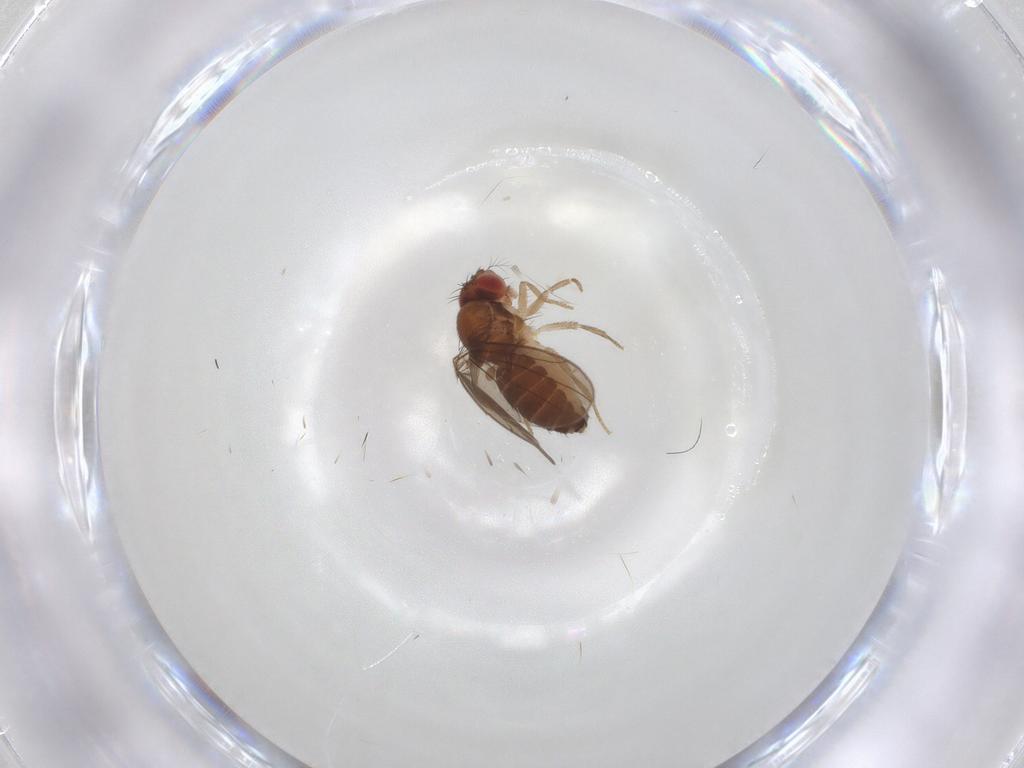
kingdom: Animalia
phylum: Arthropoda
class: Insecta
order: Diptera
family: Drosophilidae
